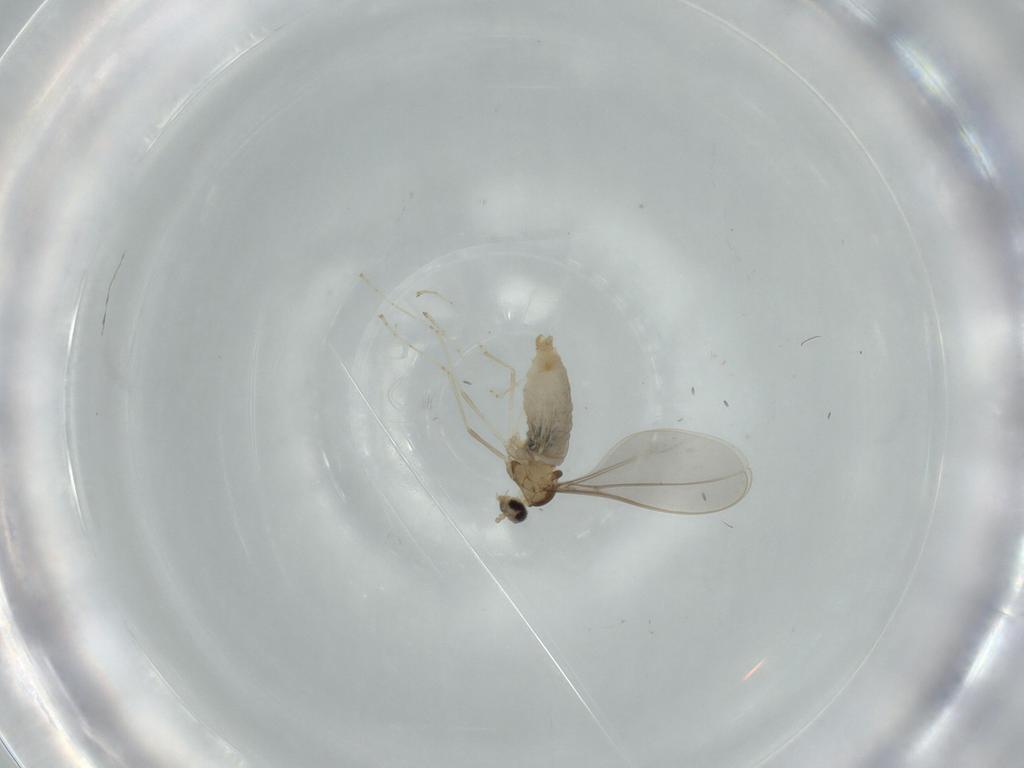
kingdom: Animalia
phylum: Arthropoda
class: Insecta
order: Diptera
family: Cecidomyiidae
